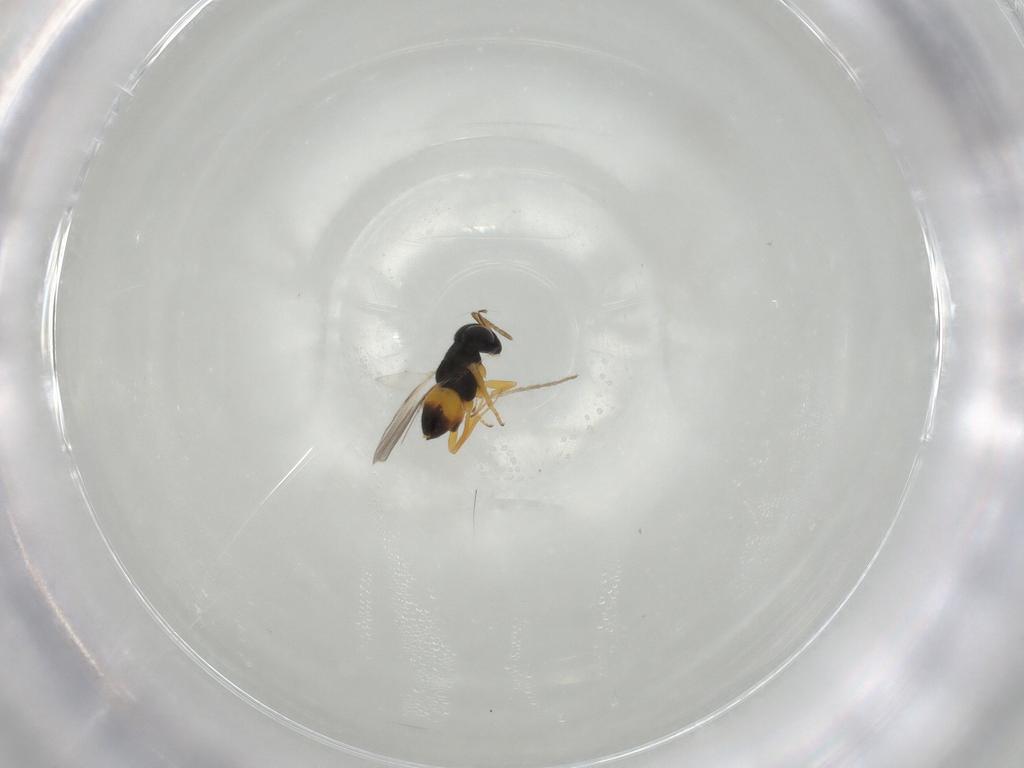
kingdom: Animalia
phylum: Arthropoda
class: Insecta
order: Hymenoptera
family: Encyrtidae
